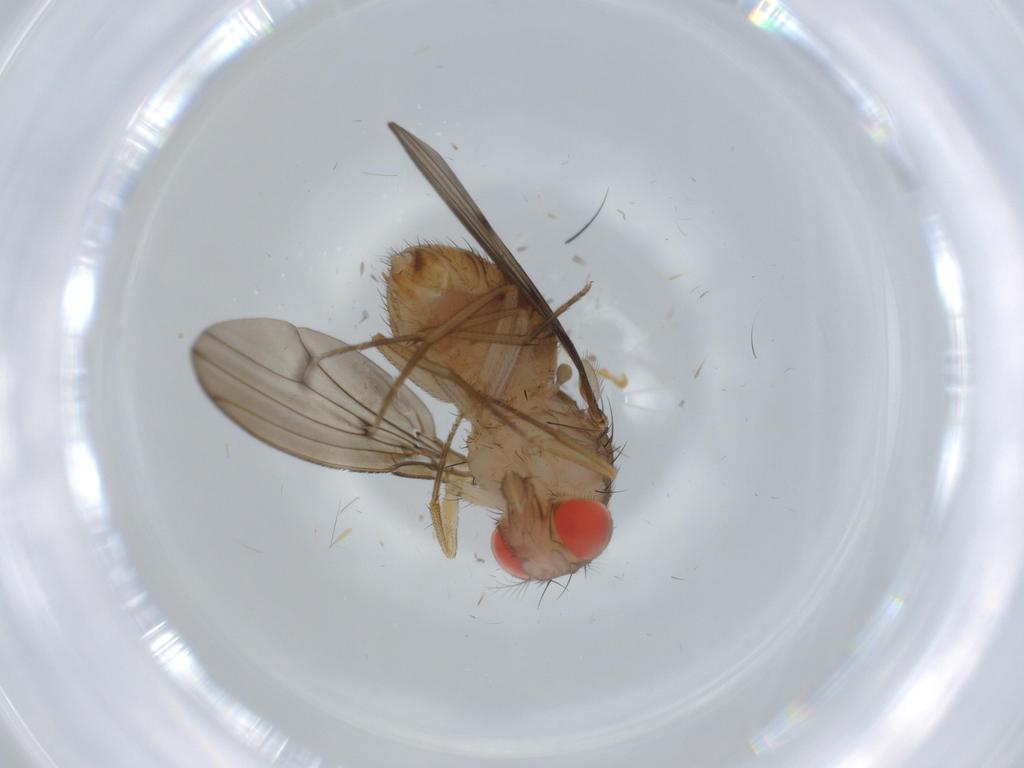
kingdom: Animalia
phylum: Arthropoda
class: Insecta
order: Diptera
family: Drosophilidae
